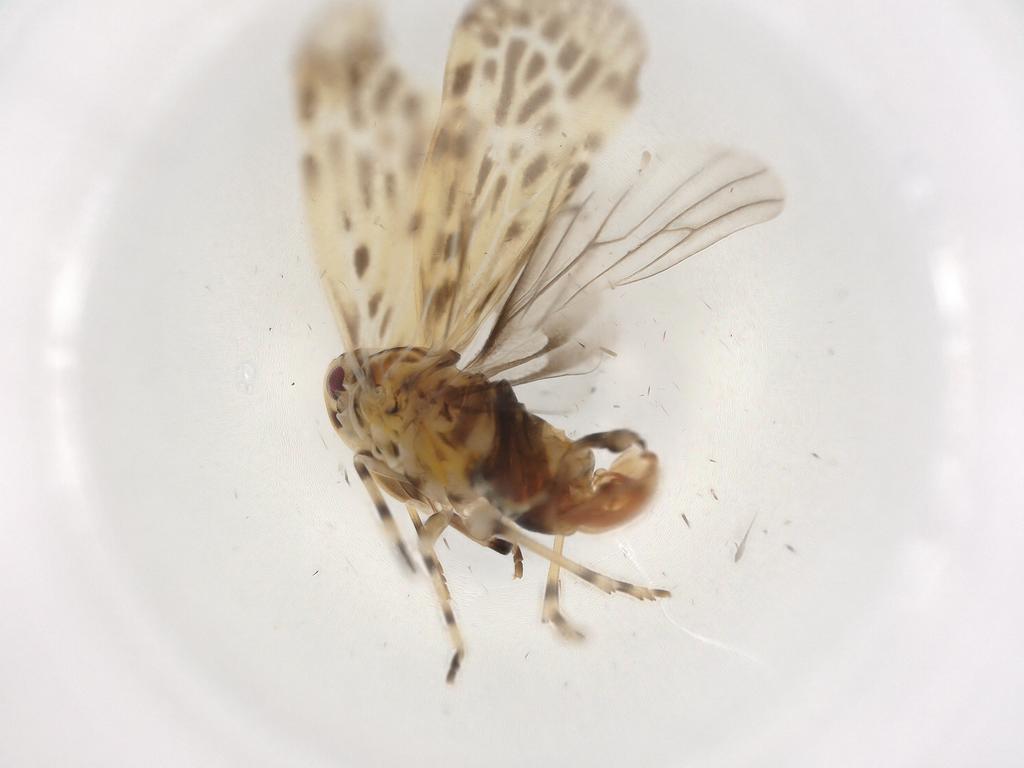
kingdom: Animalia
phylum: Arthropoda
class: Insecta
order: Hemiptera
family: Derbidae
